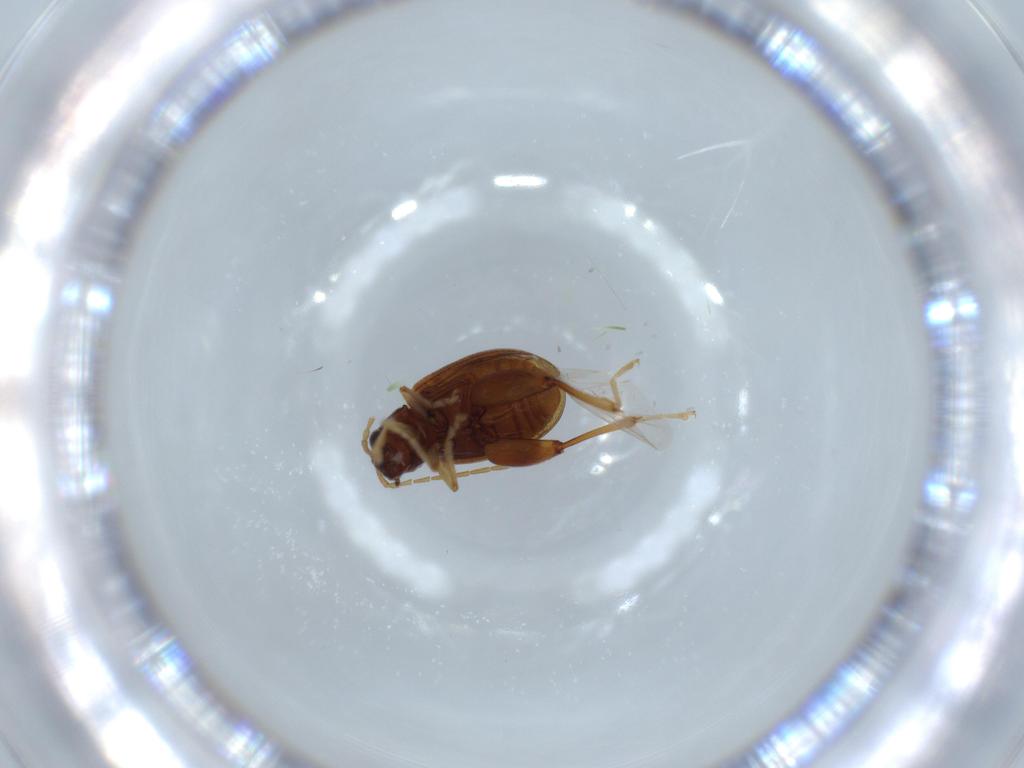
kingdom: Animalia
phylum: Arthropoda
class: Insecta
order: Coleoptera
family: Chrysomelidae
